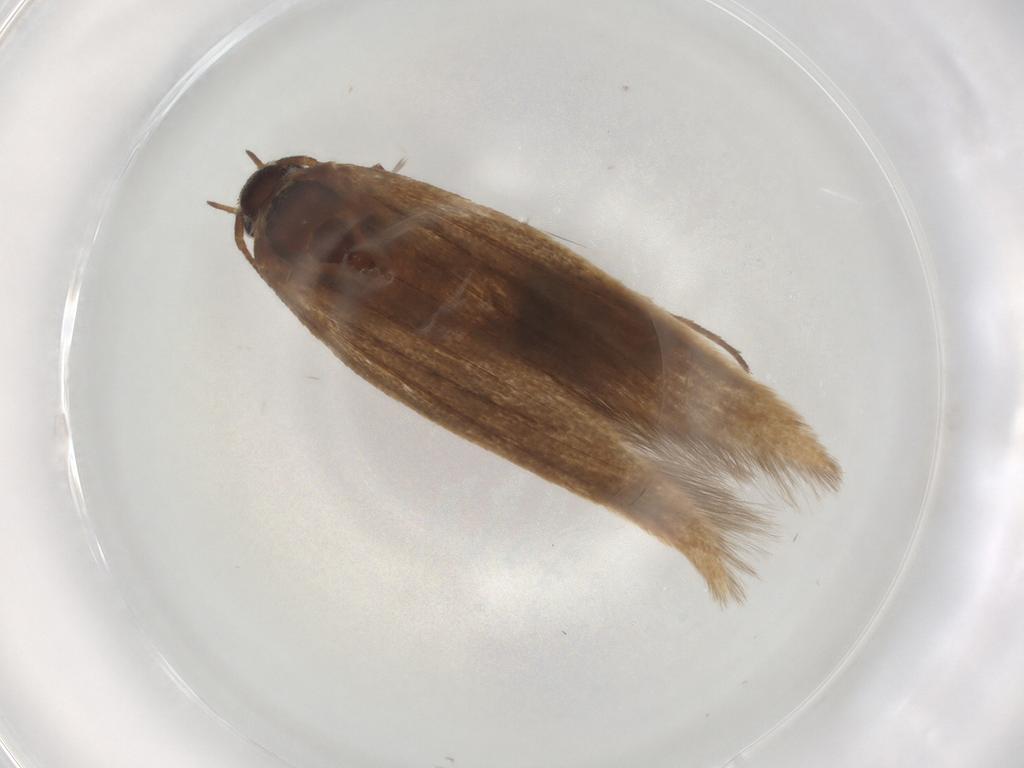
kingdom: Animalia
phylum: Arthropoda
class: Insecta
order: Lepidoptera
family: Cosmopterigidae
